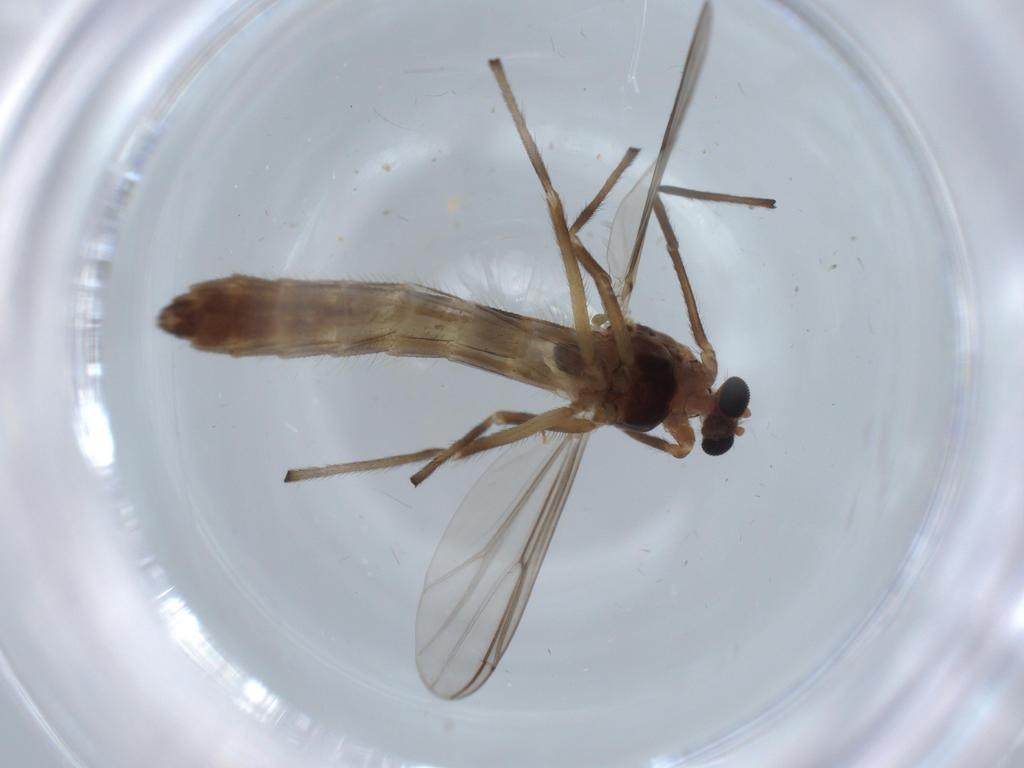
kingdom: Animalia
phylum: Arthropoda
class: Insecta
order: Diptera
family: Chironomidae
